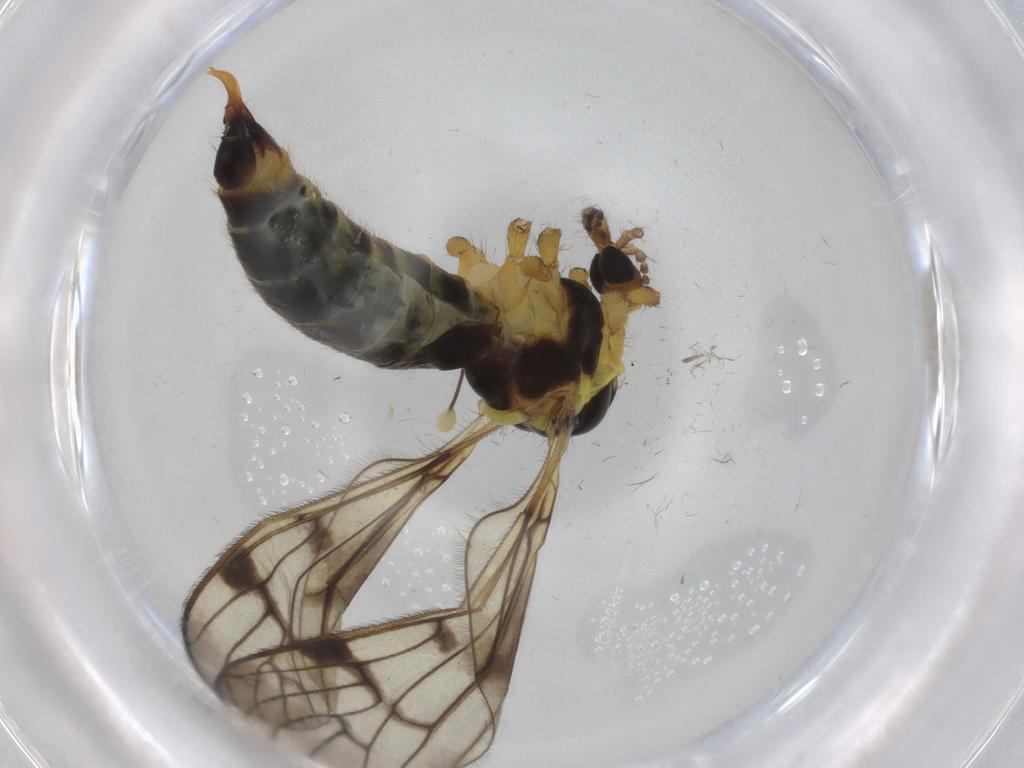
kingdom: Animalia
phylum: Arthropoda
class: Insecta
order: Diptera
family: Limoniidae
